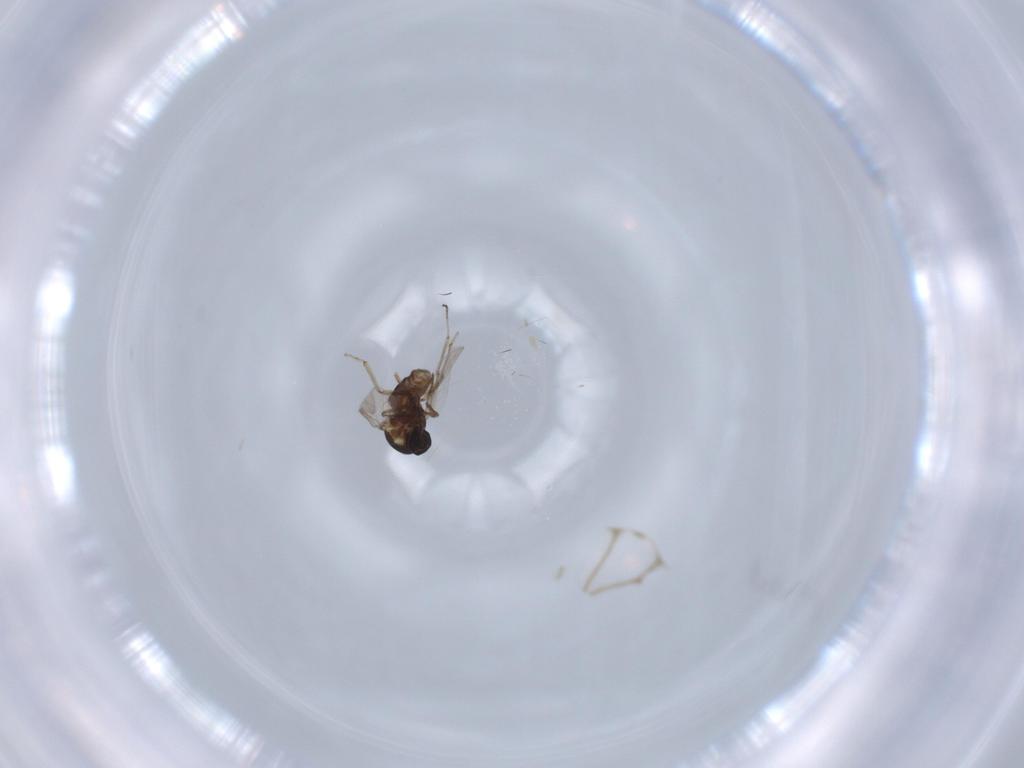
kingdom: Animalia
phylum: Arthropoda
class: Insecta
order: Diptera
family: Ceratopogonidae
